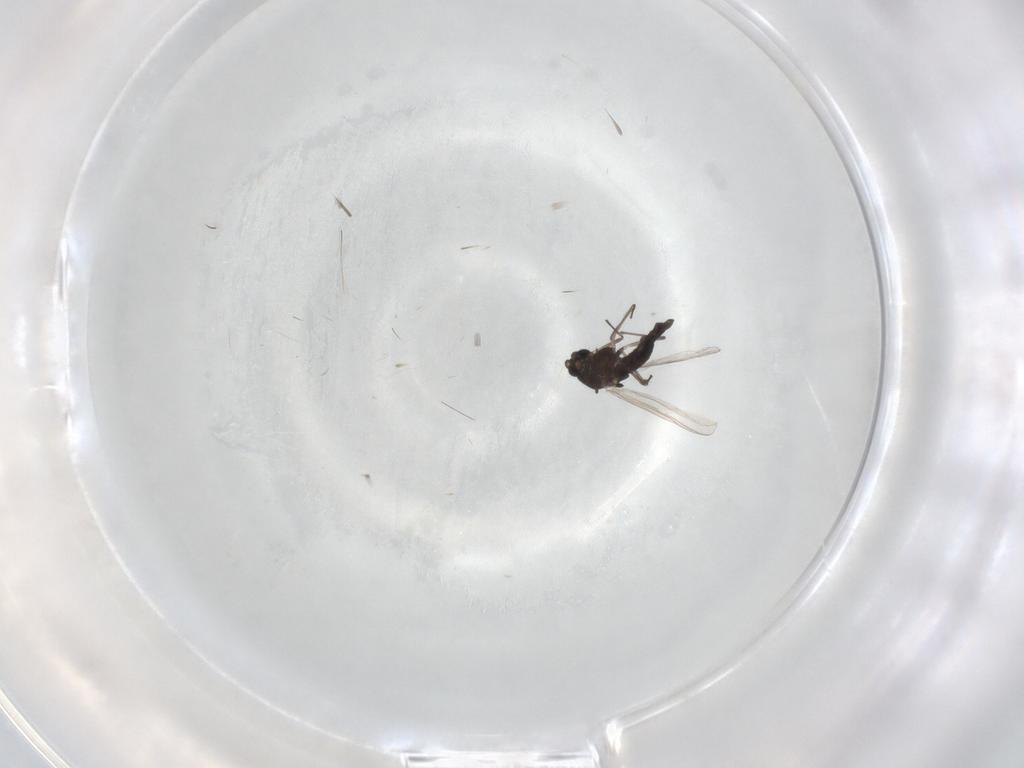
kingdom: Animalia
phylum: Arthropoda
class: Insecta
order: Diptera
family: Chironomidae
